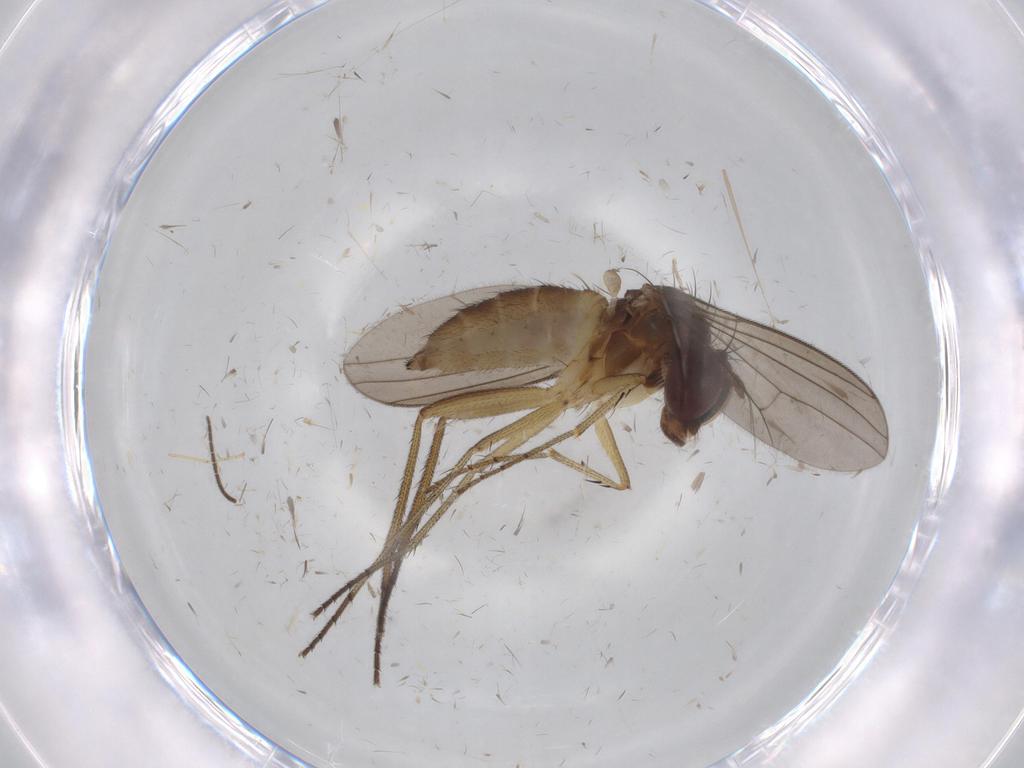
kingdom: Animalia
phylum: Arthropoda
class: Insecta
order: Diptera
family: Dolichopodidae
